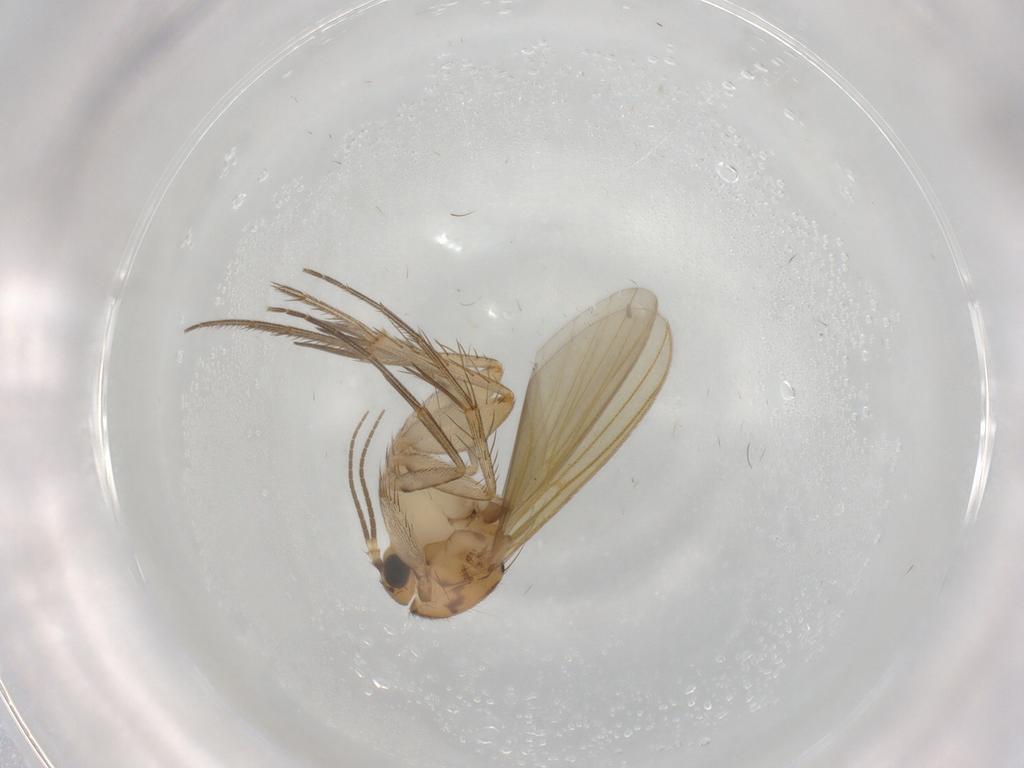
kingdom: Animalia
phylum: Arthropoda
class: Insecta
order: Diptera
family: Mycetophilidae
